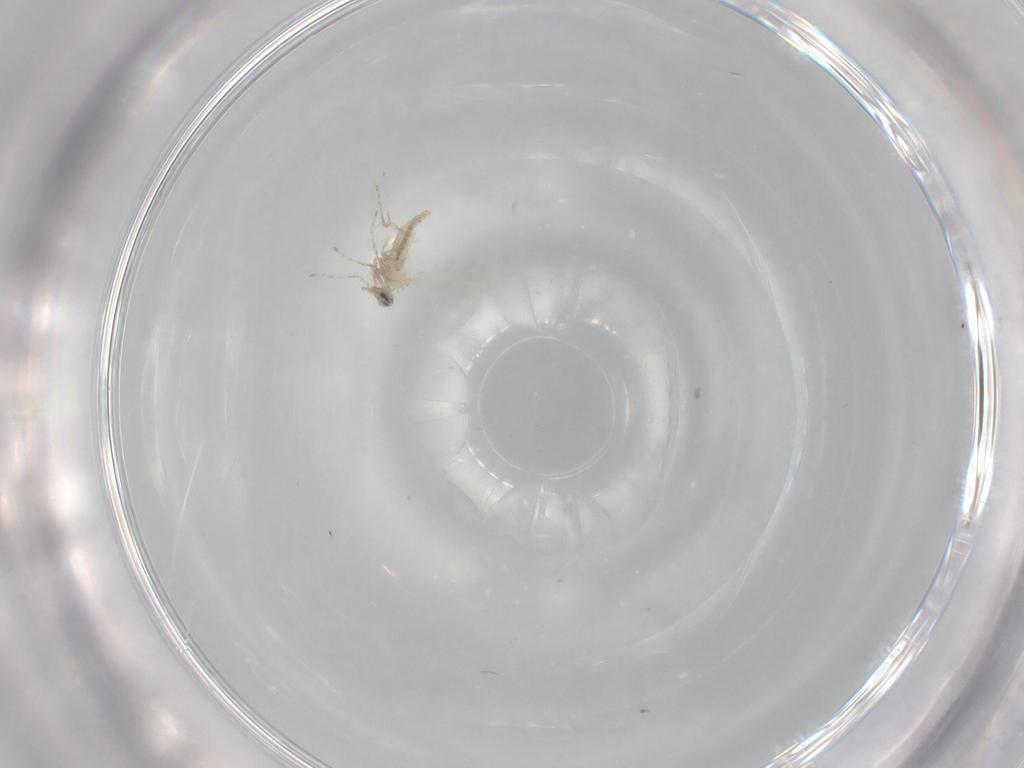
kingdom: Animalia
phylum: Arthropoda
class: Insecta
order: Diptera
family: Cecidomyiidae
